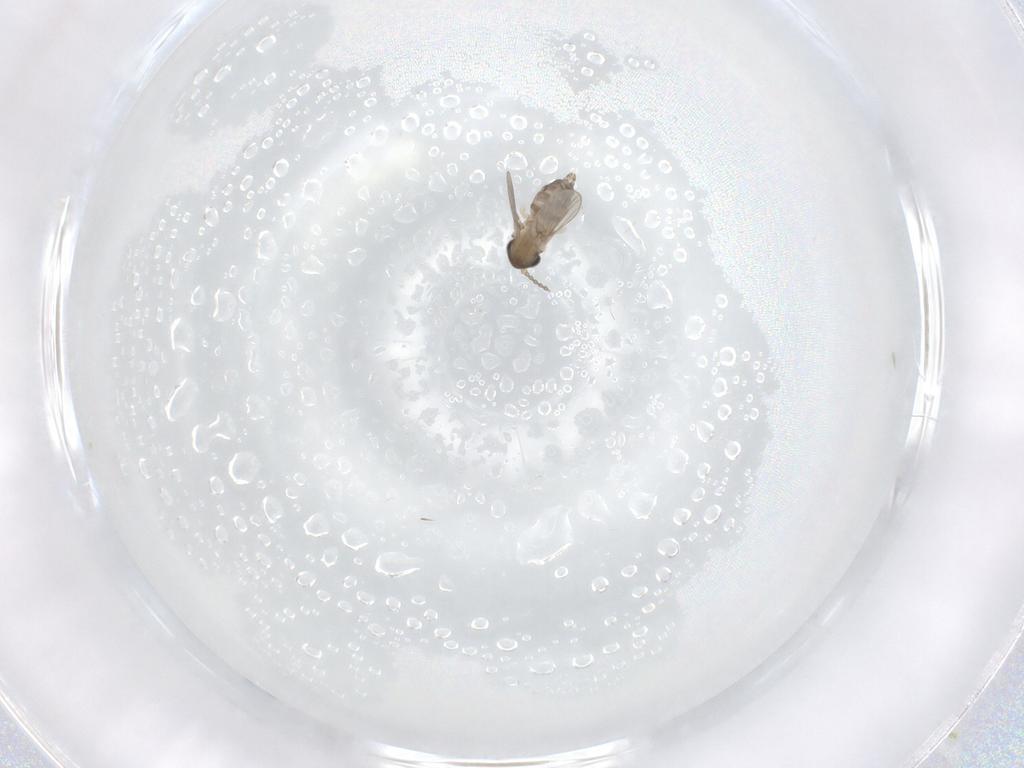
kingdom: Animalia
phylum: Arthropoda
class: Insecta
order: Diptera
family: Psychodidae
